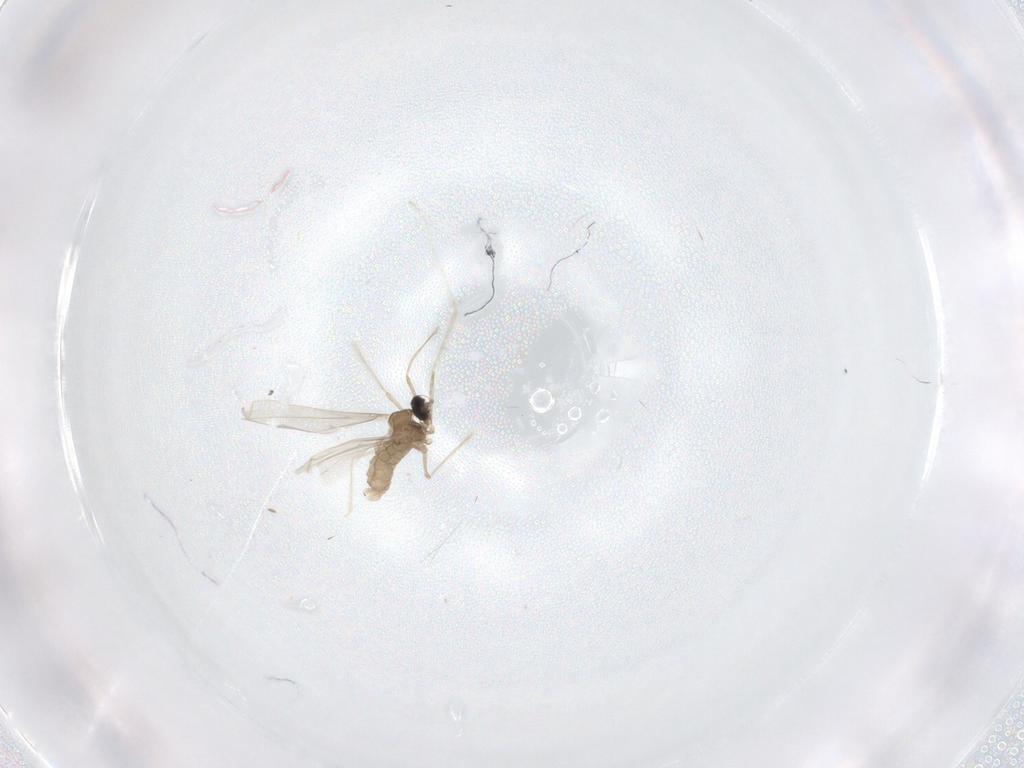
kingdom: Animalia
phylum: Arthropoda
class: Insecta
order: Diptera
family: Cecidomyiidae
